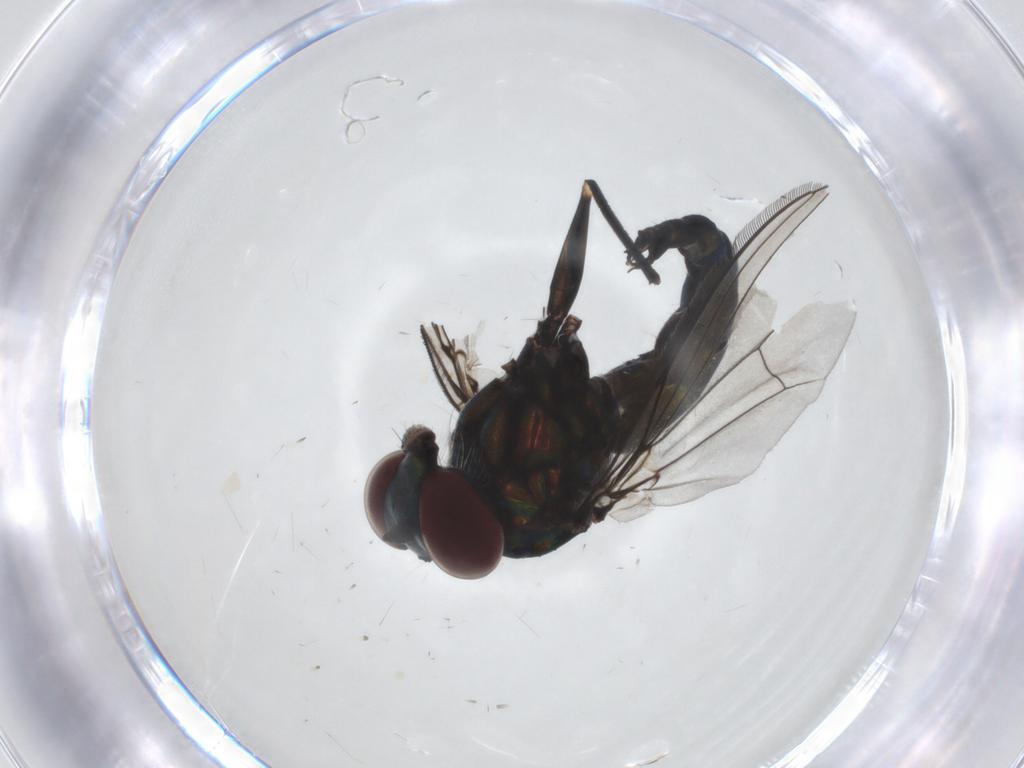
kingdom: Animalia
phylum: Arthropoda
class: Insecta
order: Diptera
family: Dolichopodidae
